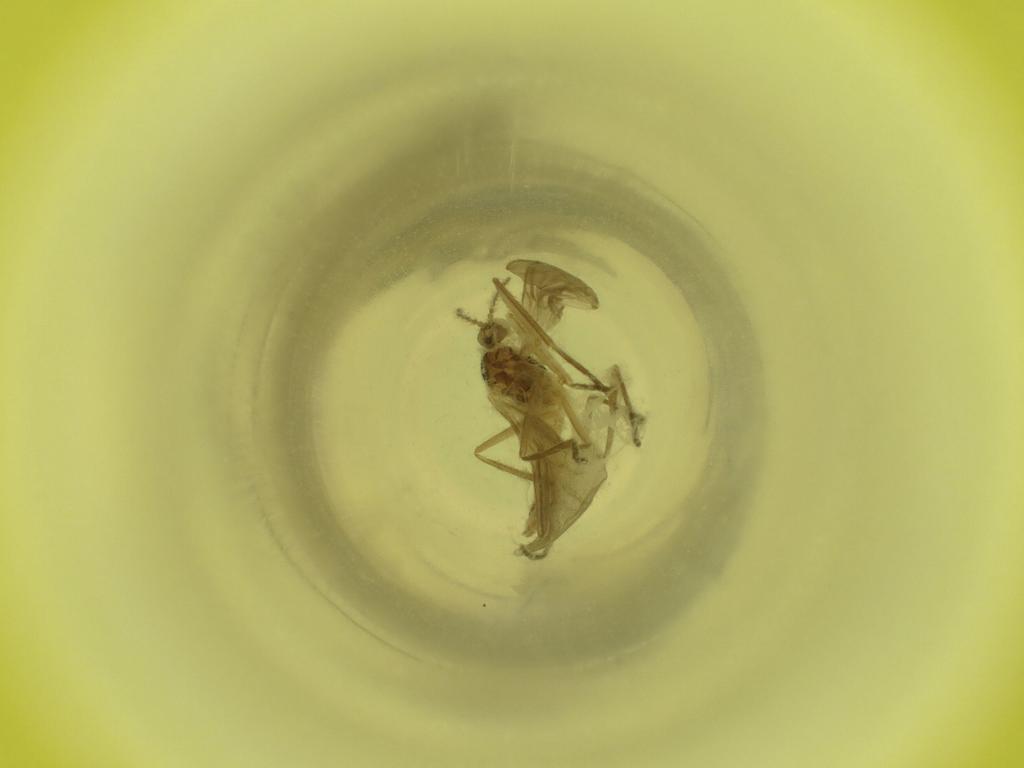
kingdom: Animalia
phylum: Arthropoda
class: Insecta
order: Diptera
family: Cecidomyiidae
